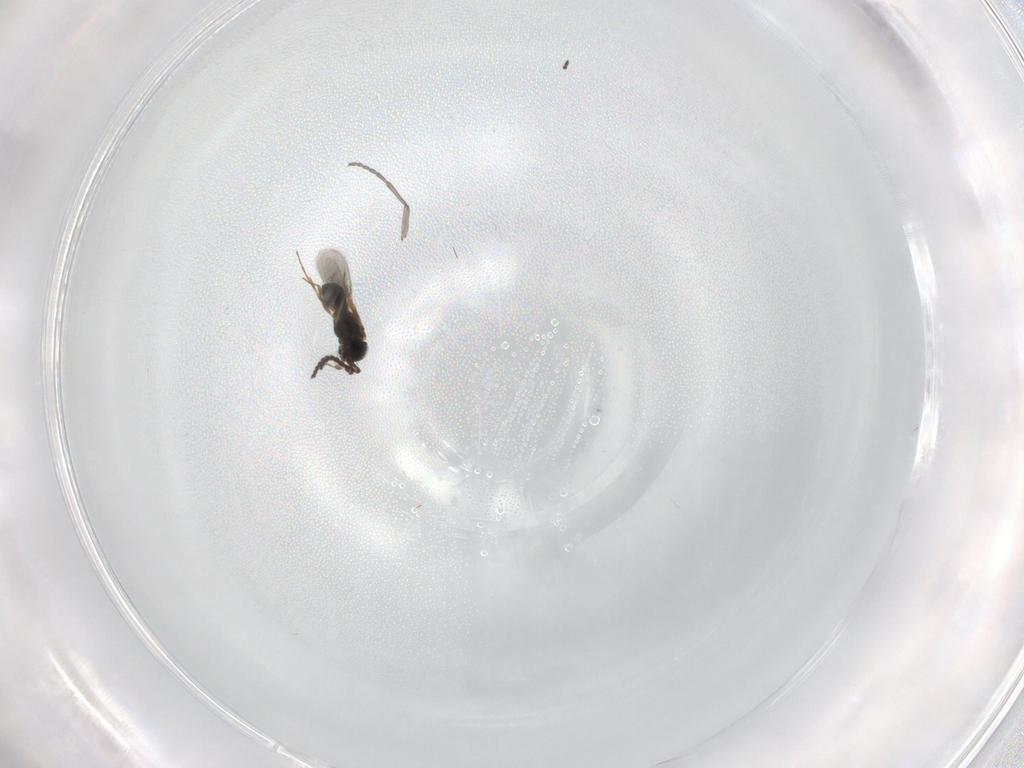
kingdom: Animalia
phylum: Arthropoda
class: Insecta
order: Hymenoptera
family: Scelionidae
